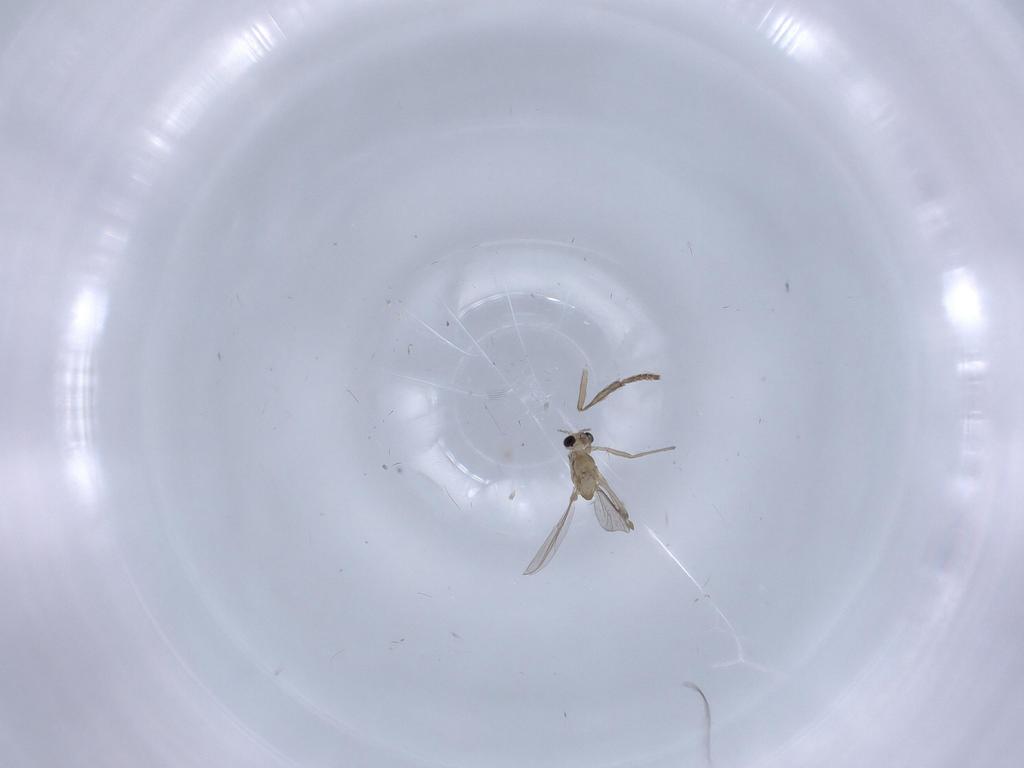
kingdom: Animalia
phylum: Arthropoda
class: Insecta
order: Diptera
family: Chironomidae
